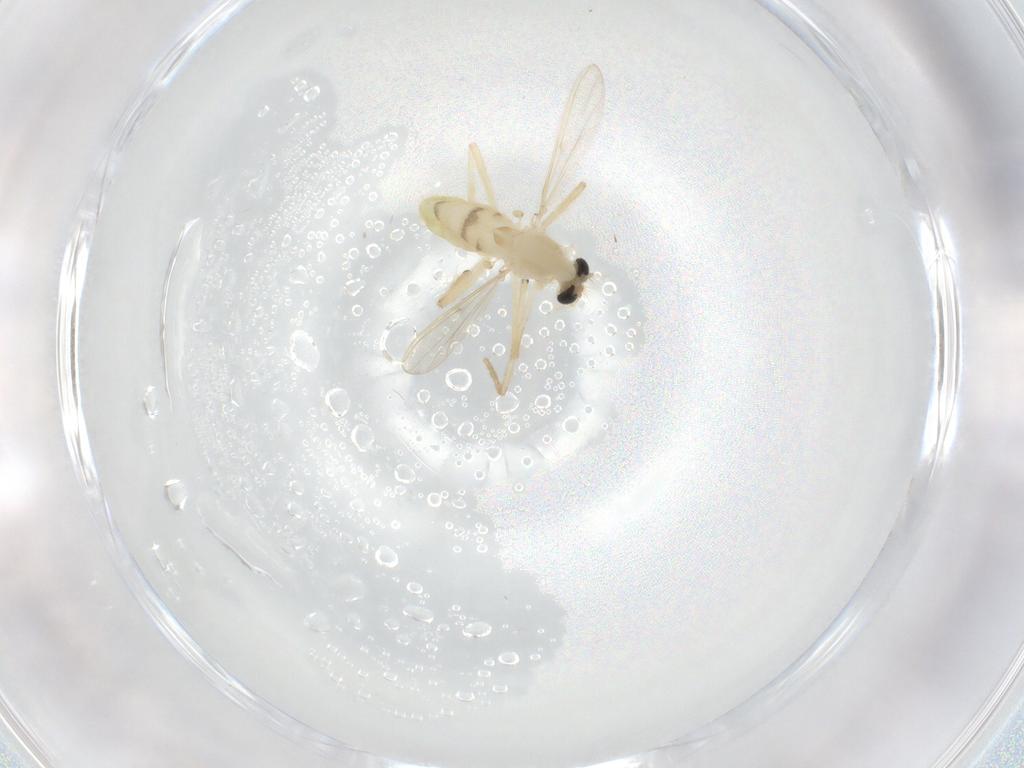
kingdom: Animalia
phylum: Arthropoda
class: Insecta
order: Diptera
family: Chironomidae
